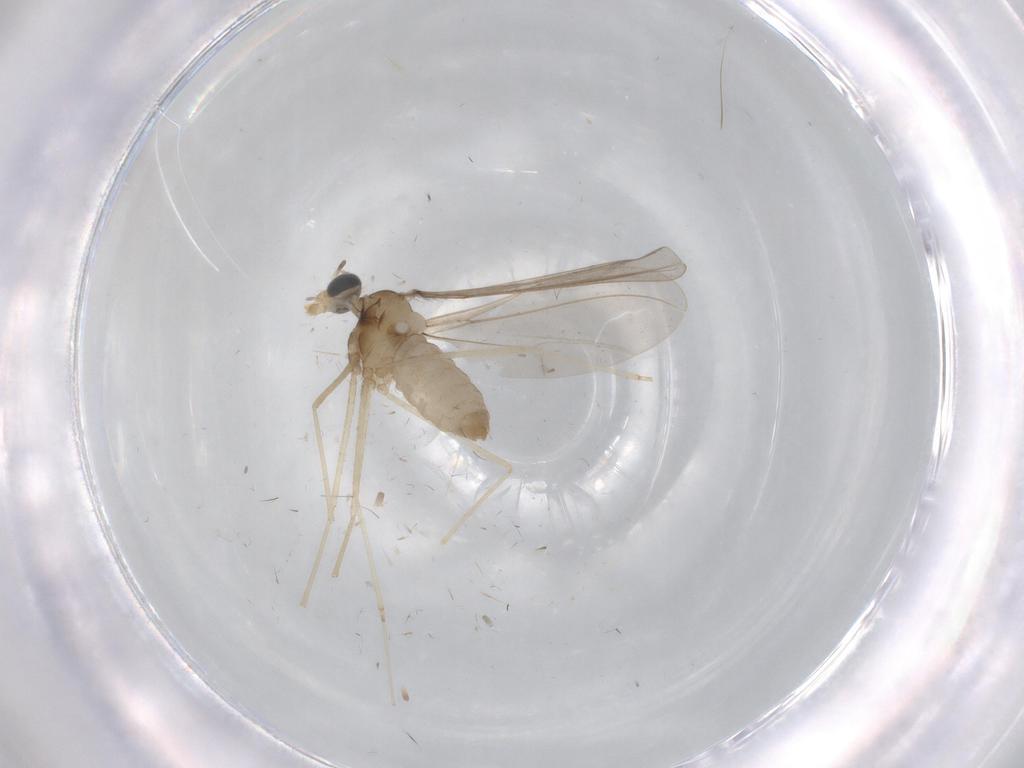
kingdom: Animalia
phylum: Arthropoda
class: Insecta
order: Diptera
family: Cecidomyiidae
